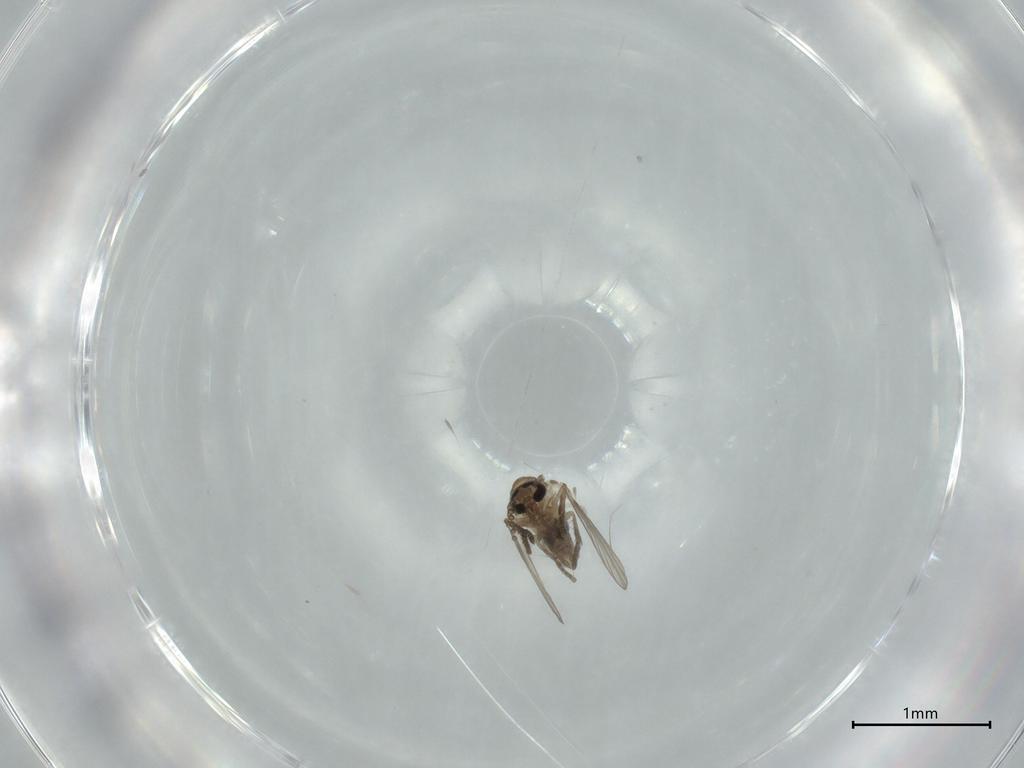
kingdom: Animalia
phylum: Arthropoda
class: Insecta
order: Diptera
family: Psychodidae
